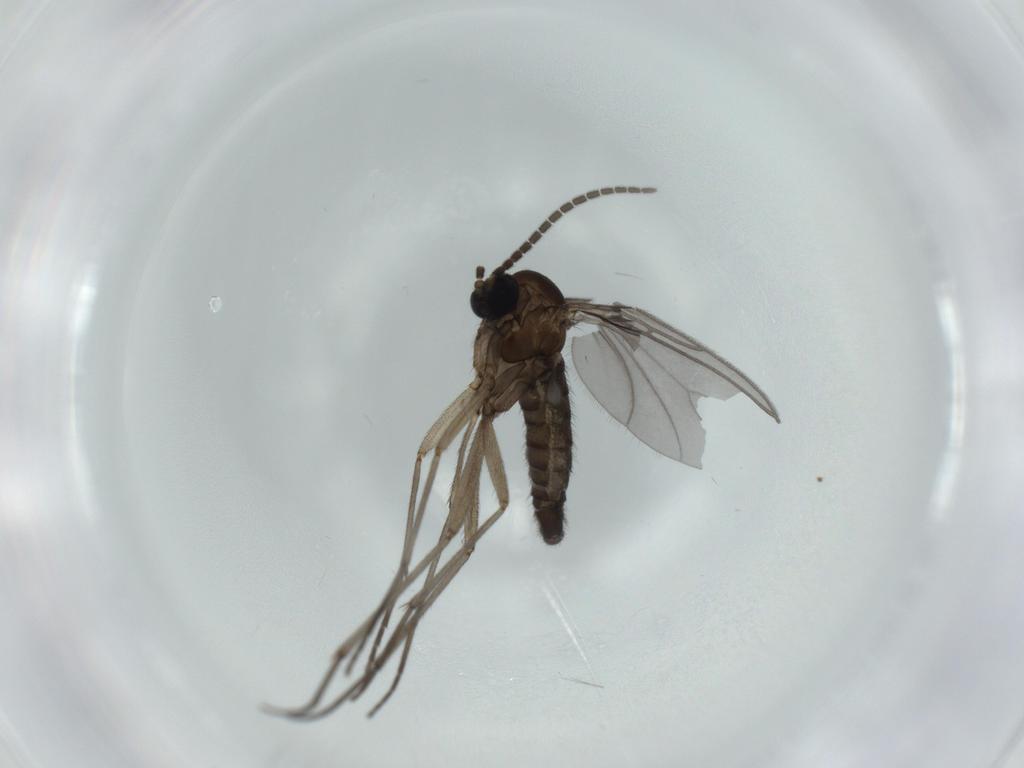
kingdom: Animalia
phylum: Arthropoda
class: Insecta
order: Diptera
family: Sciaridae
